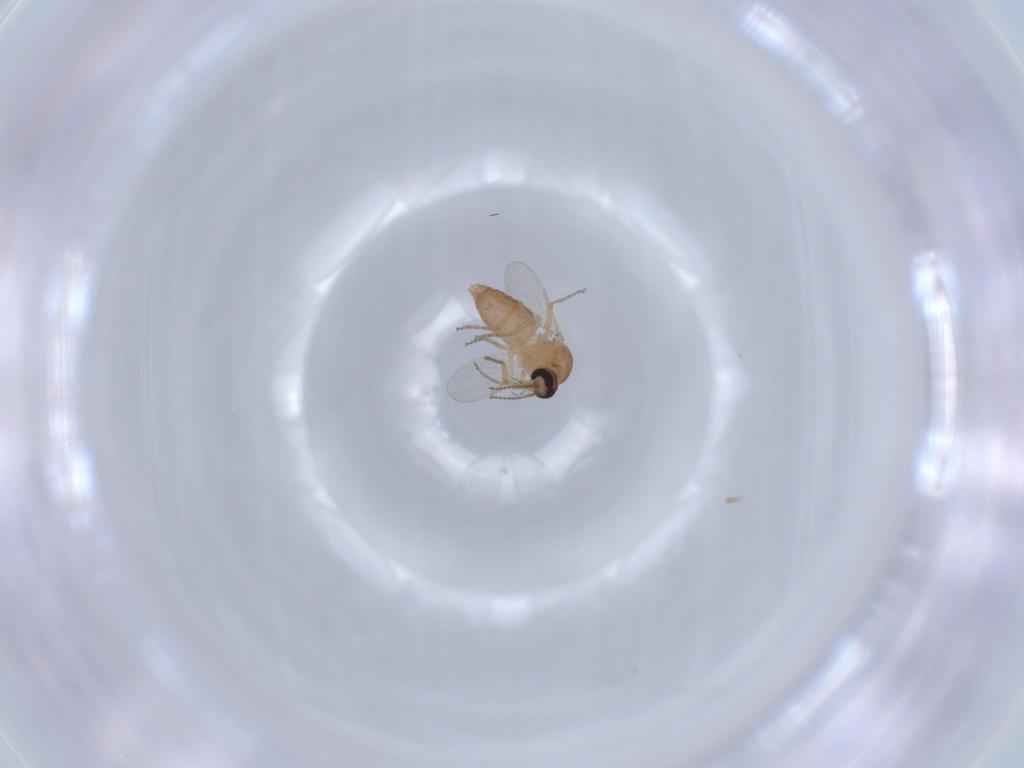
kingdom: Animalia
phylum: Arthropoda
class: Insecta
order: Diptera
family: Ceratopogonidae
